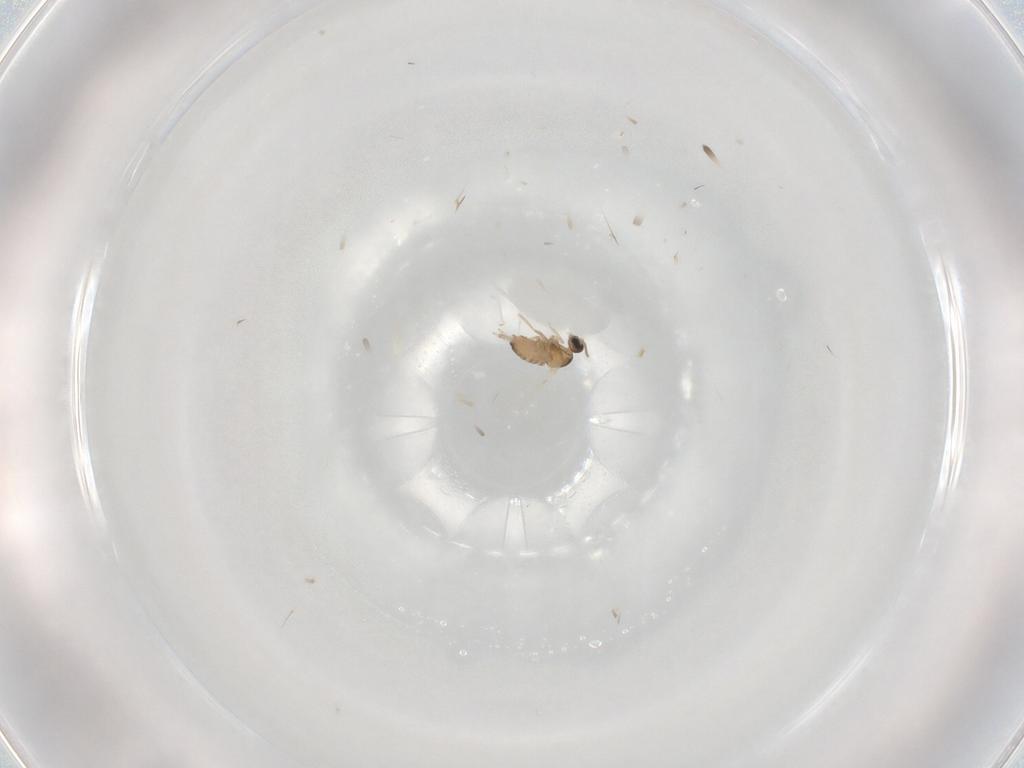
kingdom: Animalia
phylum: Arthropoda
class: Insecta
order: Diptera
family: Cecidomyiidae
